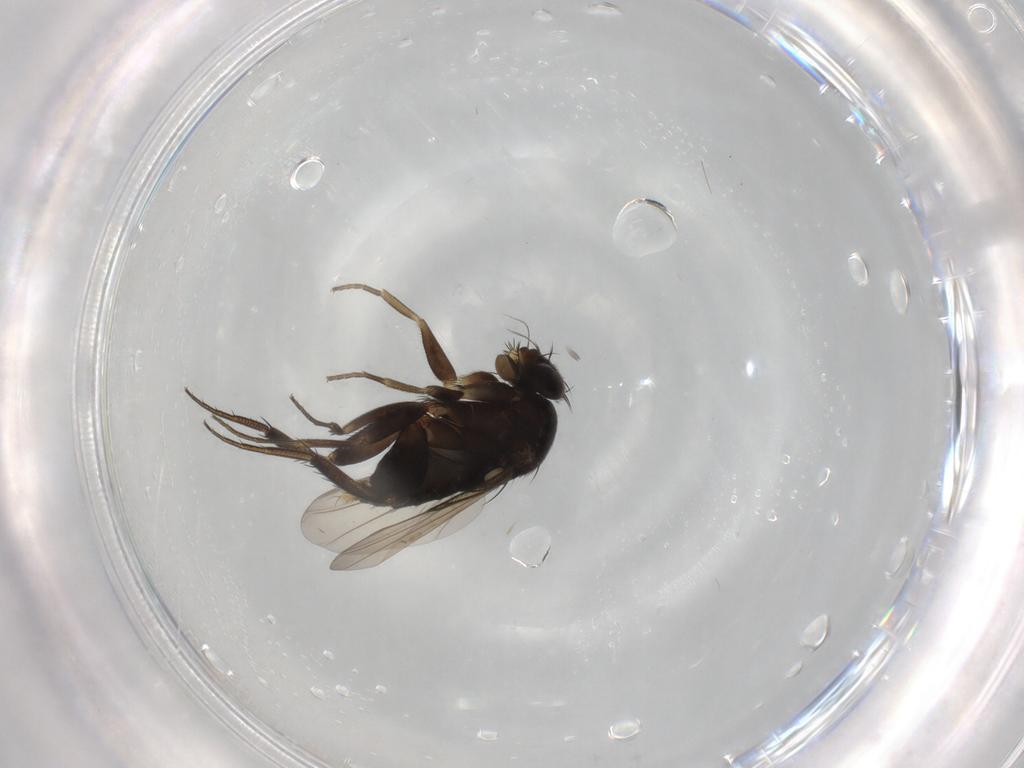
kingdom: Animalia
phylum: Arthropoda
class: Insecta
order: Diptera
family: Phoridae
